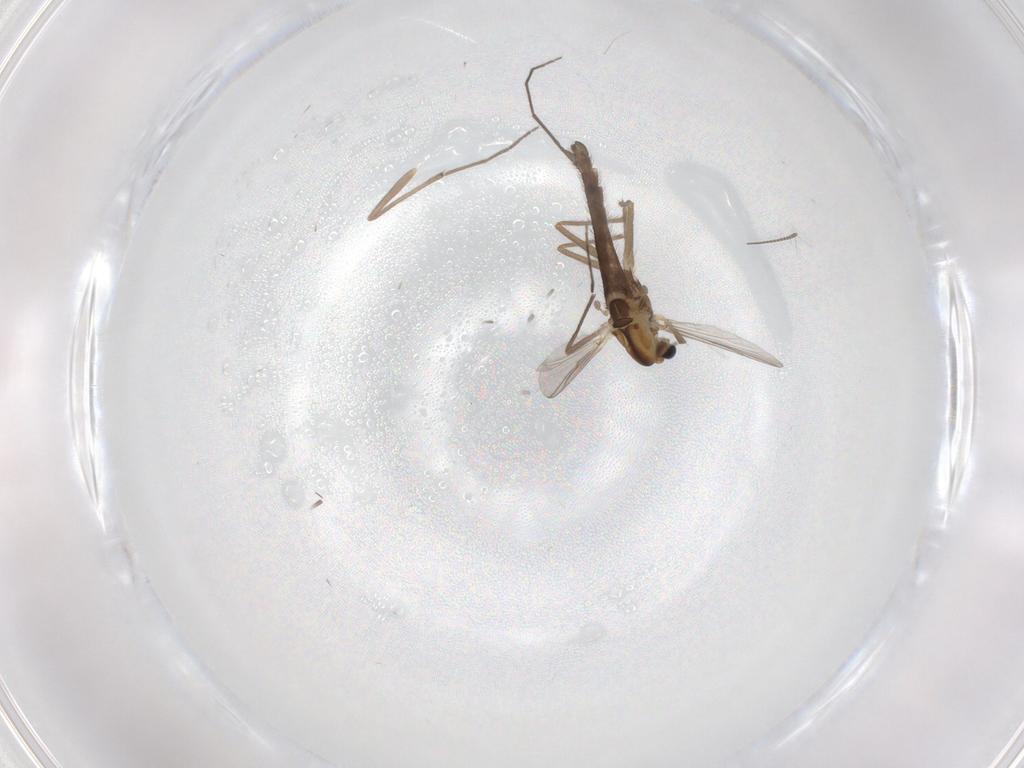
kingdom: Animalia
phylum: Arthropoda
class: Insecta
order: Diptera
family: Chironomidae
